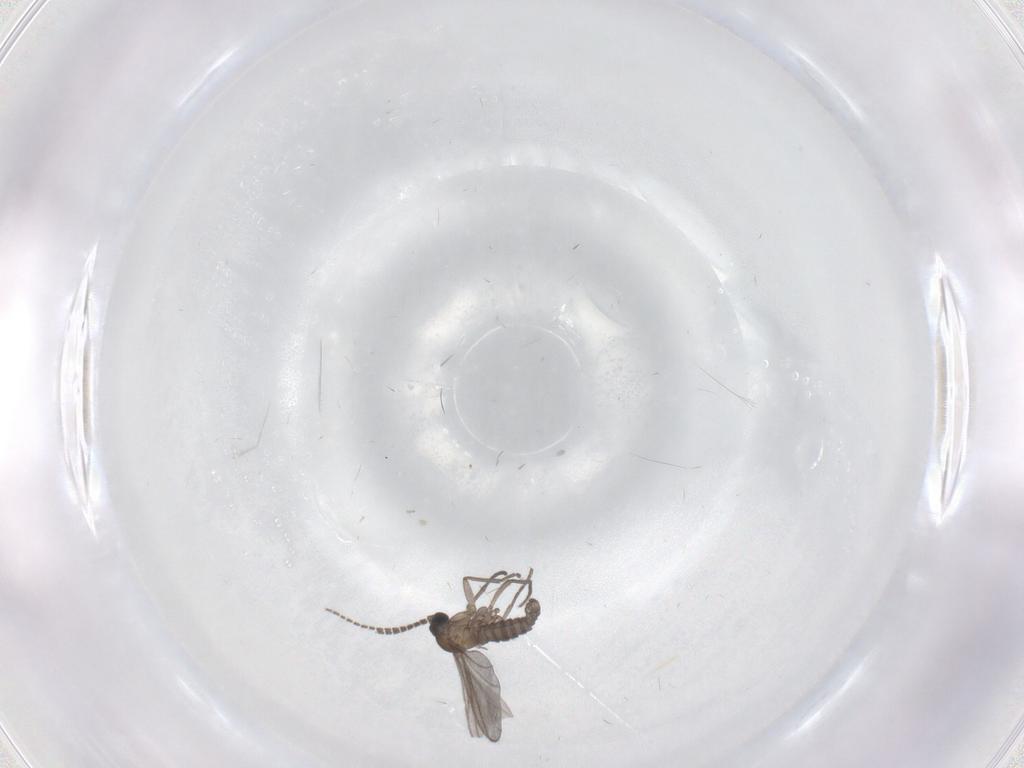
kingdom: Animalia
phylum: Arthropoda
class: Insecta
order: Diptera
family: Sciaridae
